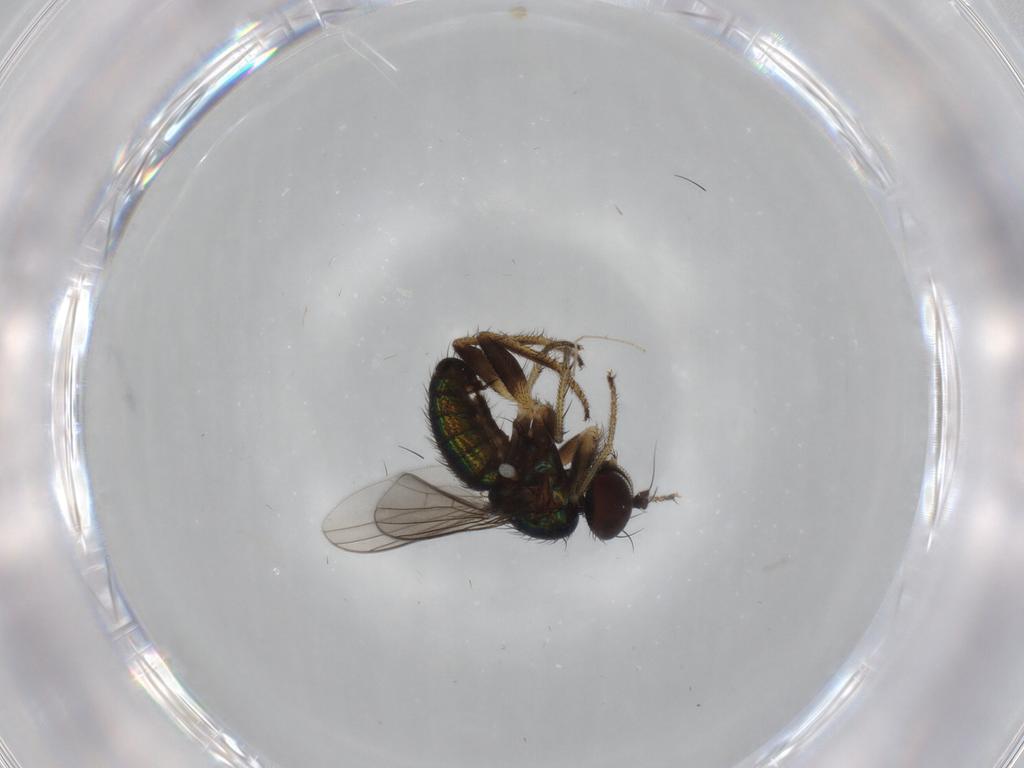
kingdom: Animalia
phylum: Arthropoda
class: Insecta
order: Diptera
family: Dolichopodidae
